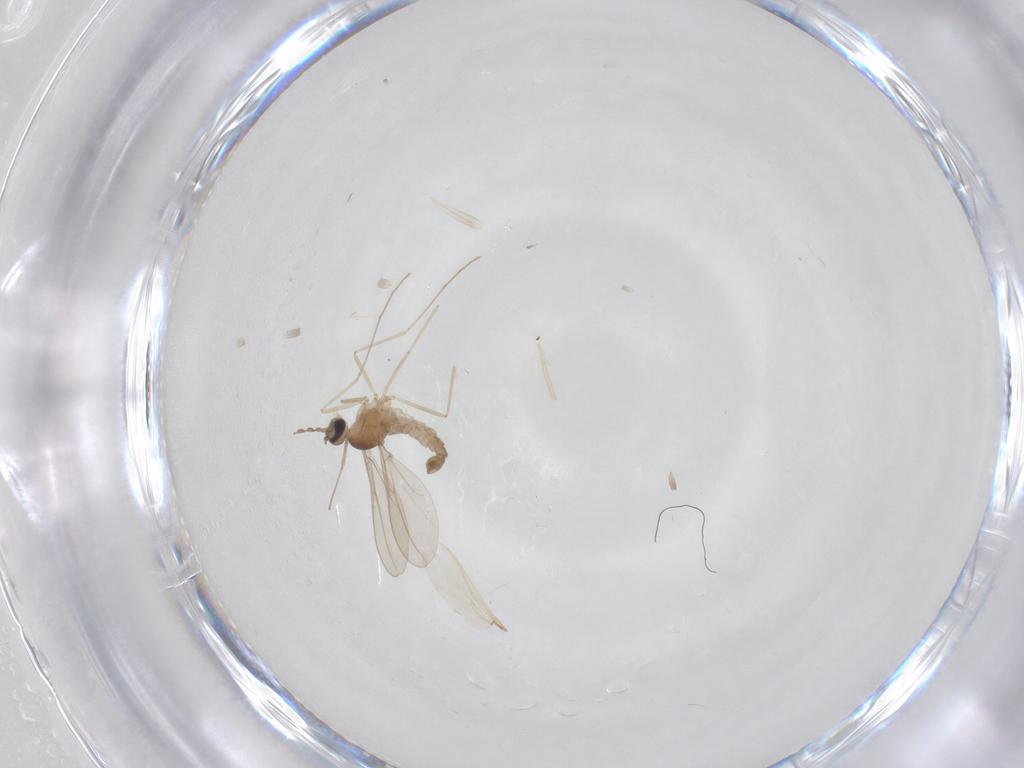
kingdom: Animalia
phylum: Arthropoda
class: Insecta
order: Diptera
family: Cecidomyiidae
